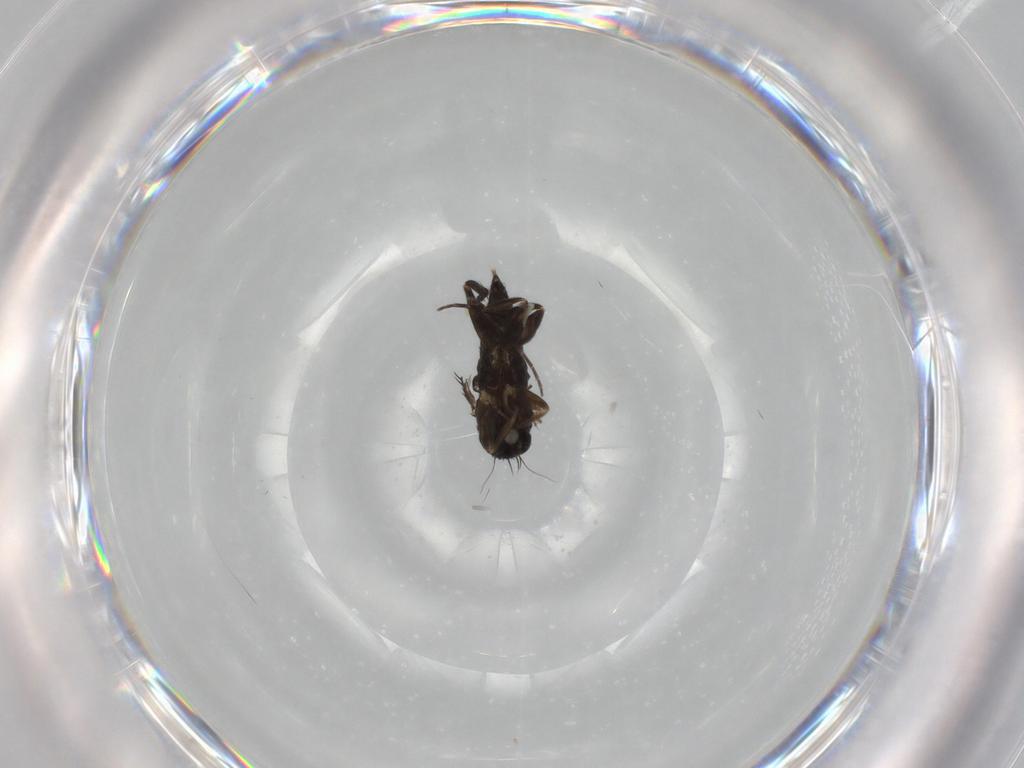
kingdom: Animalia
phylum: Arthropoda
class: Insecta
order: Diptera
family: Phoridae
